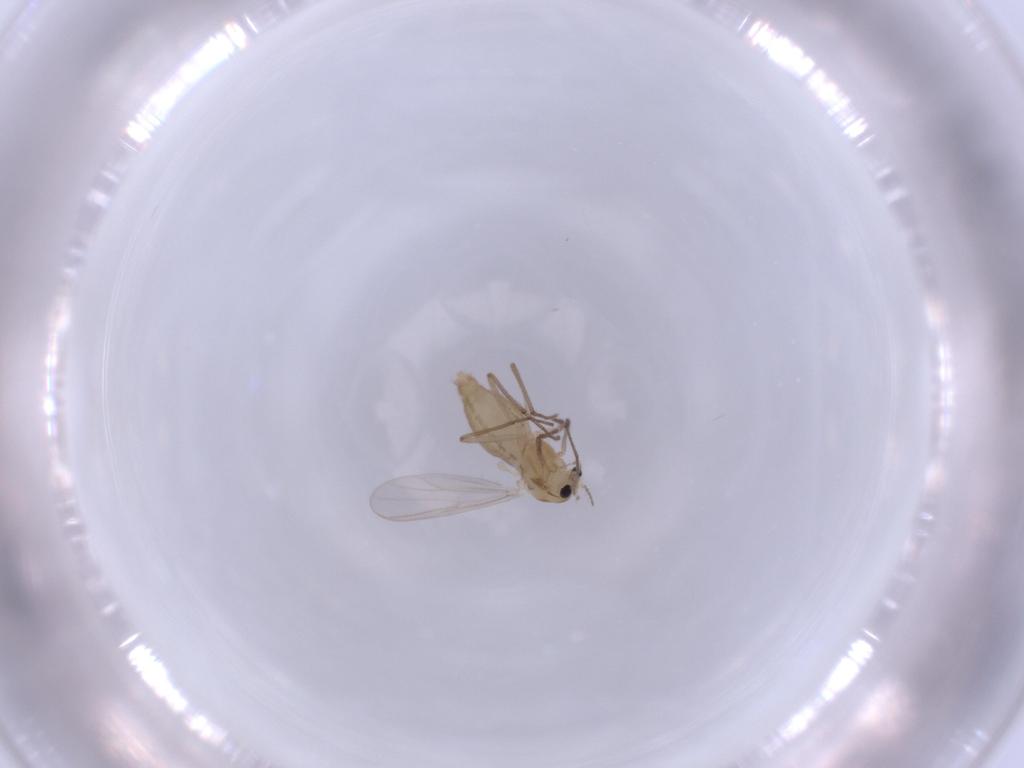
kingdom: Animalia
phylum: Arthropoda
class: Insecta
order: Diptera
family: Chironomidae
